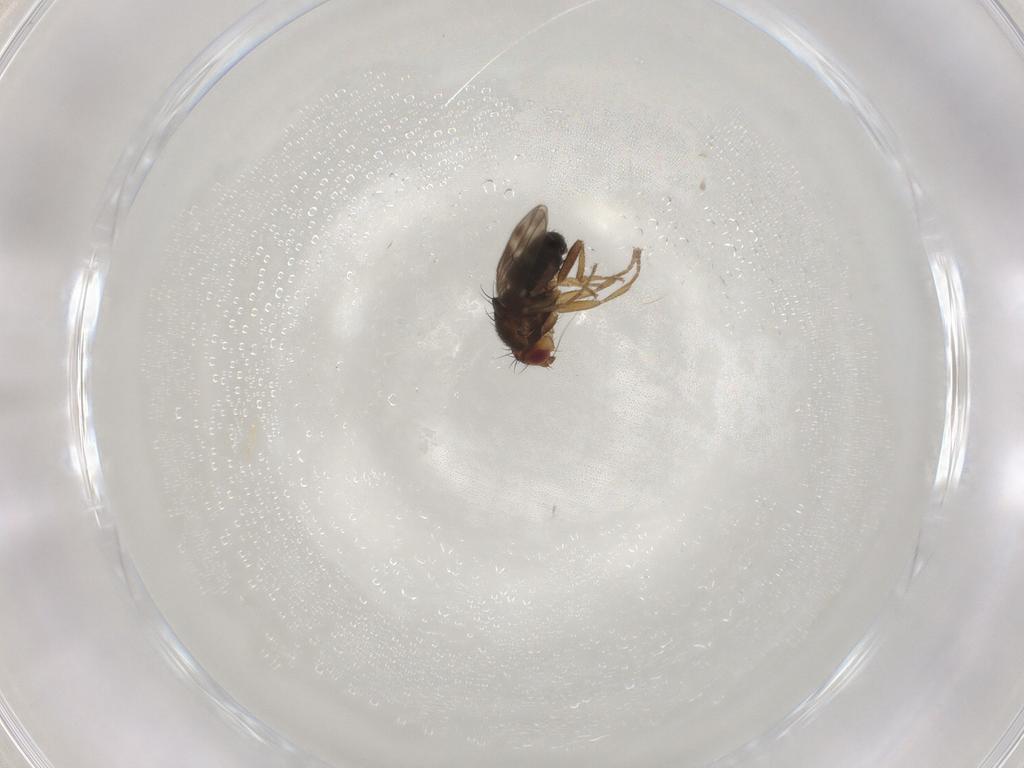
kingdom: Animalia
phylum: Arthropoda
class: Insecta
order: Diptera
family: Sphaeroceridae
